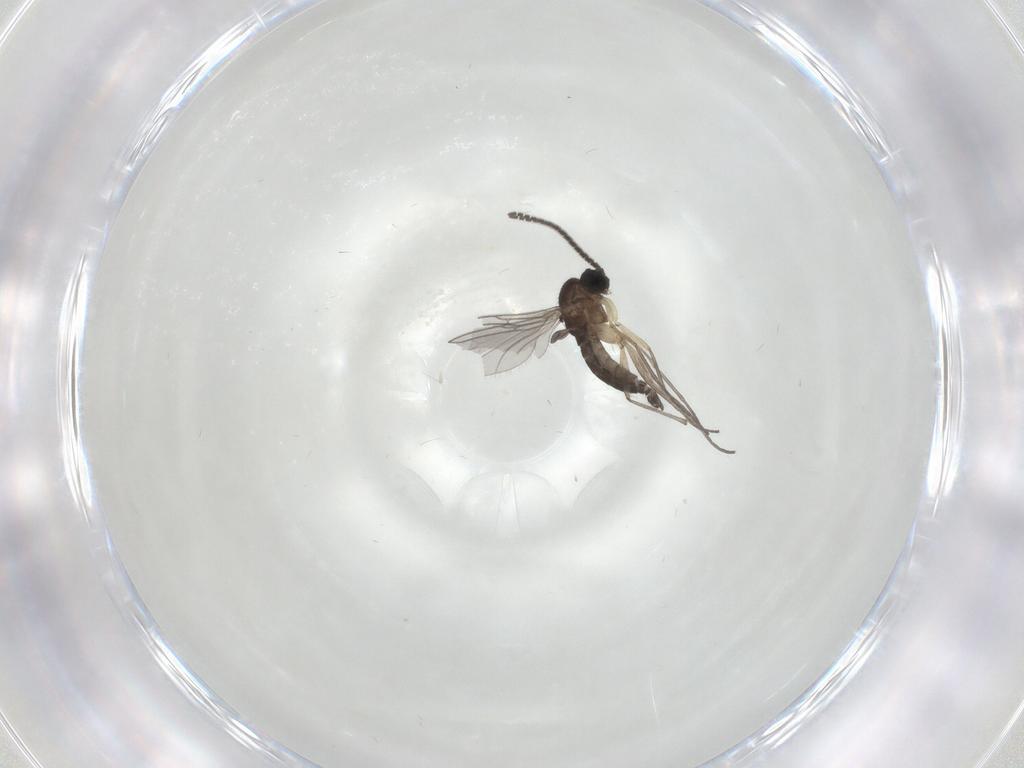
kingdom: Animalia
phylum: Arthropoda
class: Insecta
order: Diptera
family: Sciaridae
